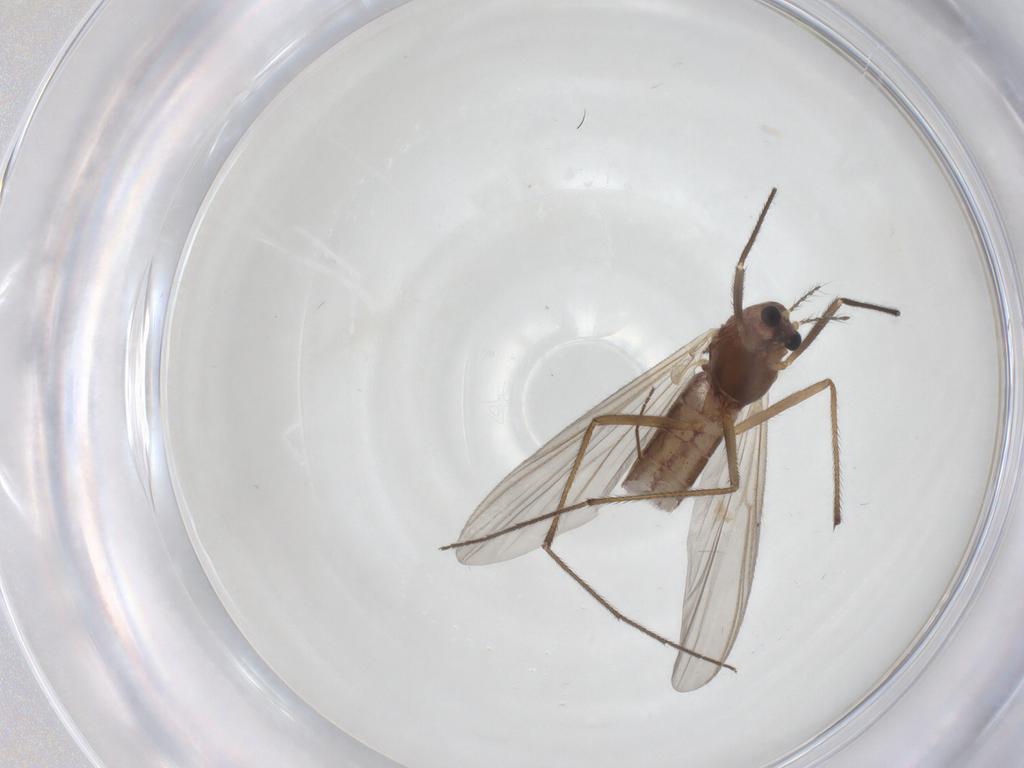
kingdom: Animalia
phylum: Arthropoda
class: Insecta
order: Diptera
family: Chironomidae
